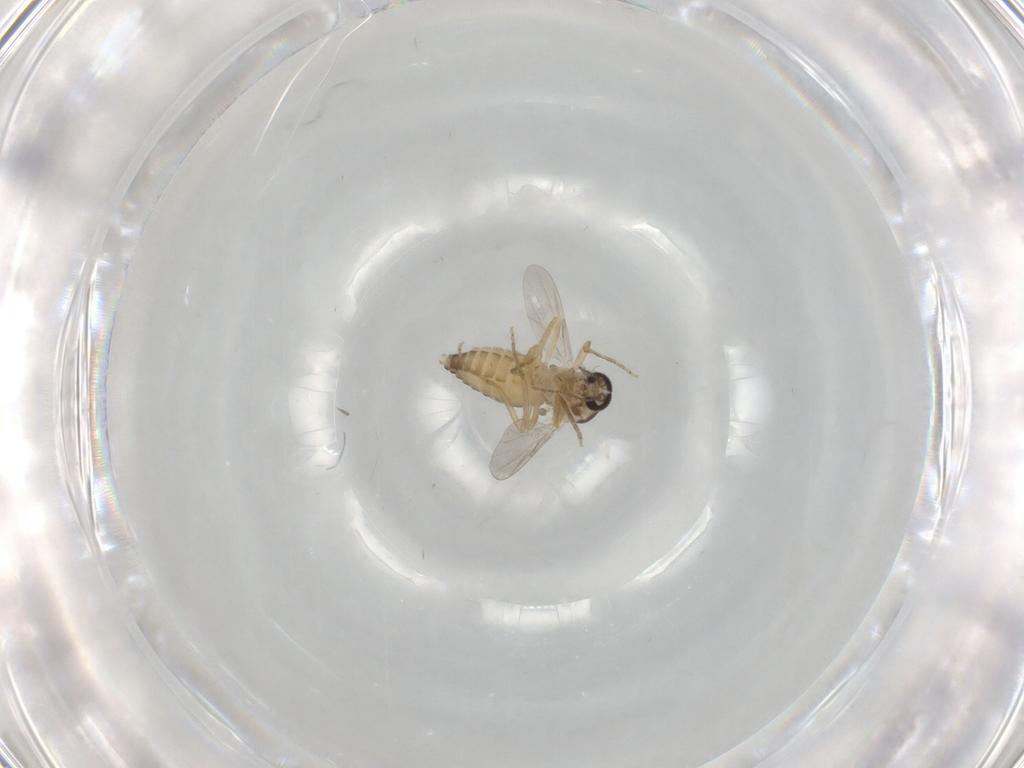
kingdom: Animalia
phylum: Arthropoda
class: Insecta
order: Diptera
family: Ceratopogonidae
